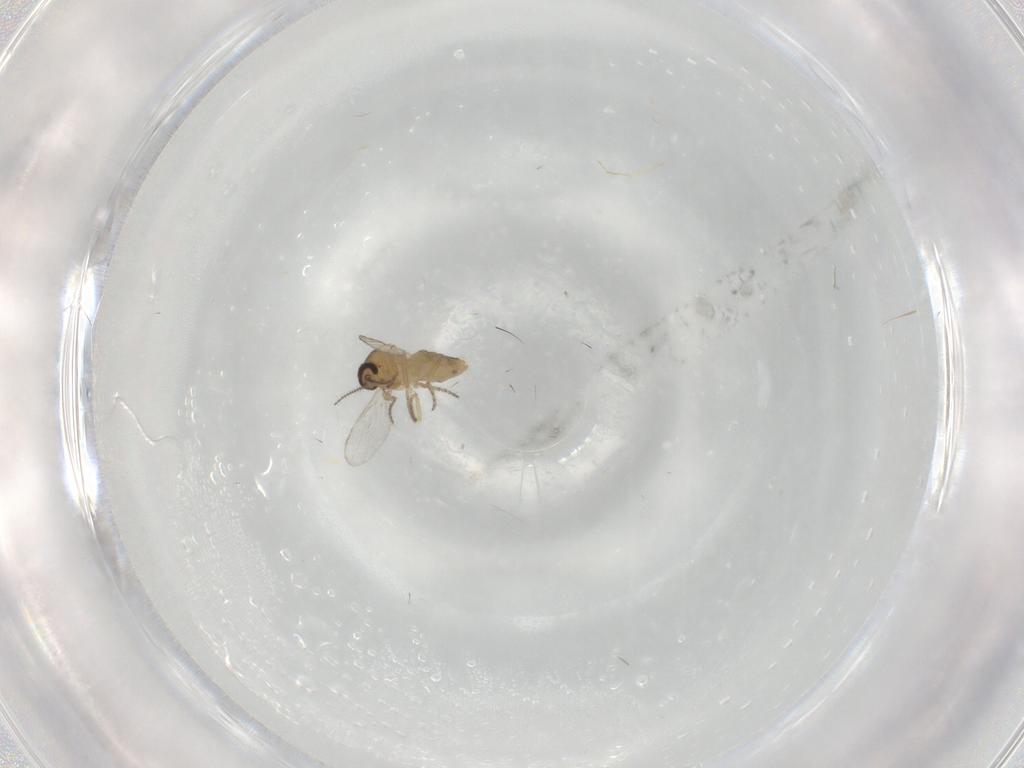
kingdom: Animalia
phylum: Arthropoda
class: Insecta
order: Diptera
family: Ceratopogonidae
